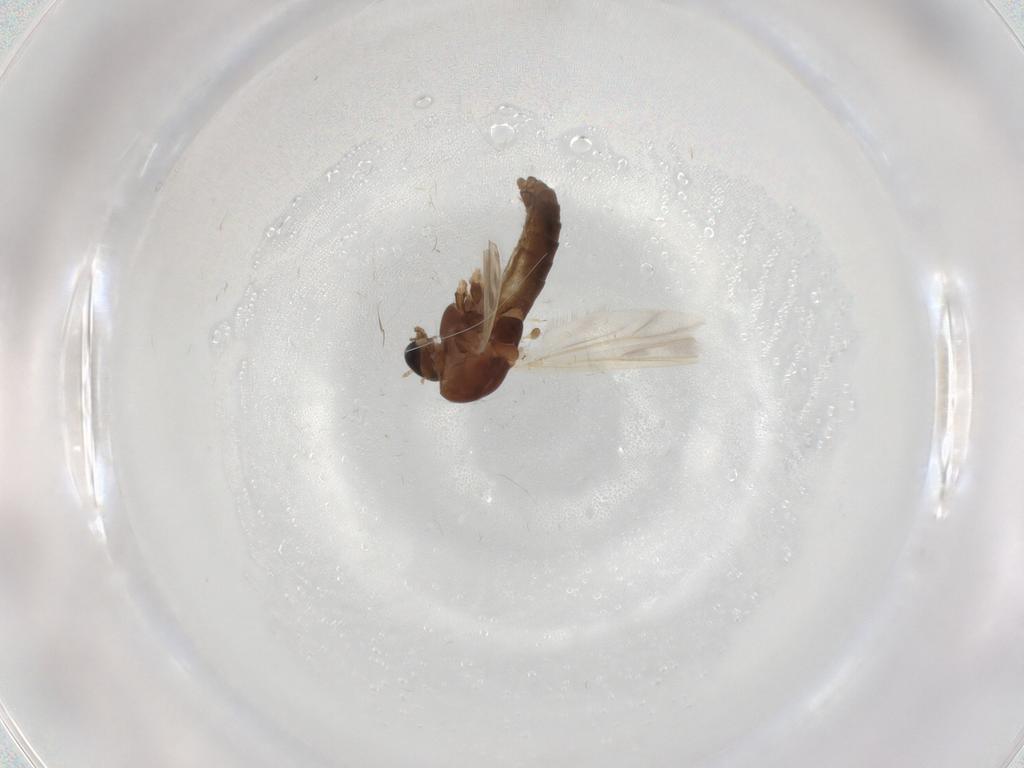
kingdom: Animalia
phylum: Arthropoda
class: Insecta
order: Diptera
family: Chironomidae
